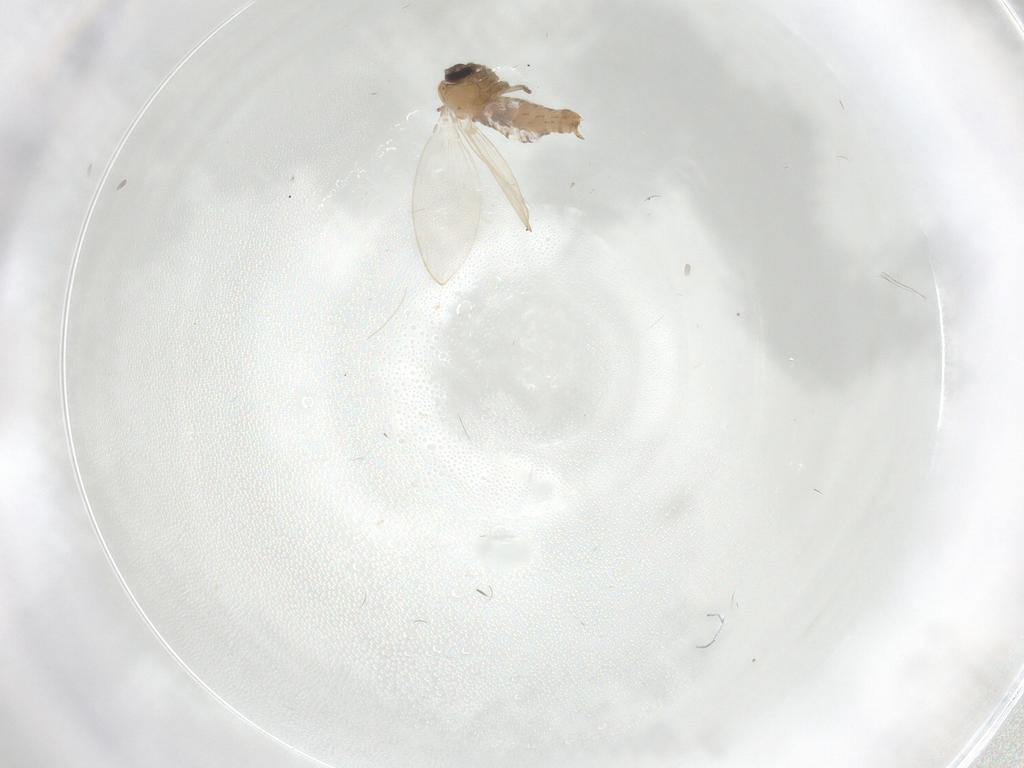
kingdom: Animalia
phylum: Arthropoda
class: Insecta
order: Diptera
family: Psychodidae
